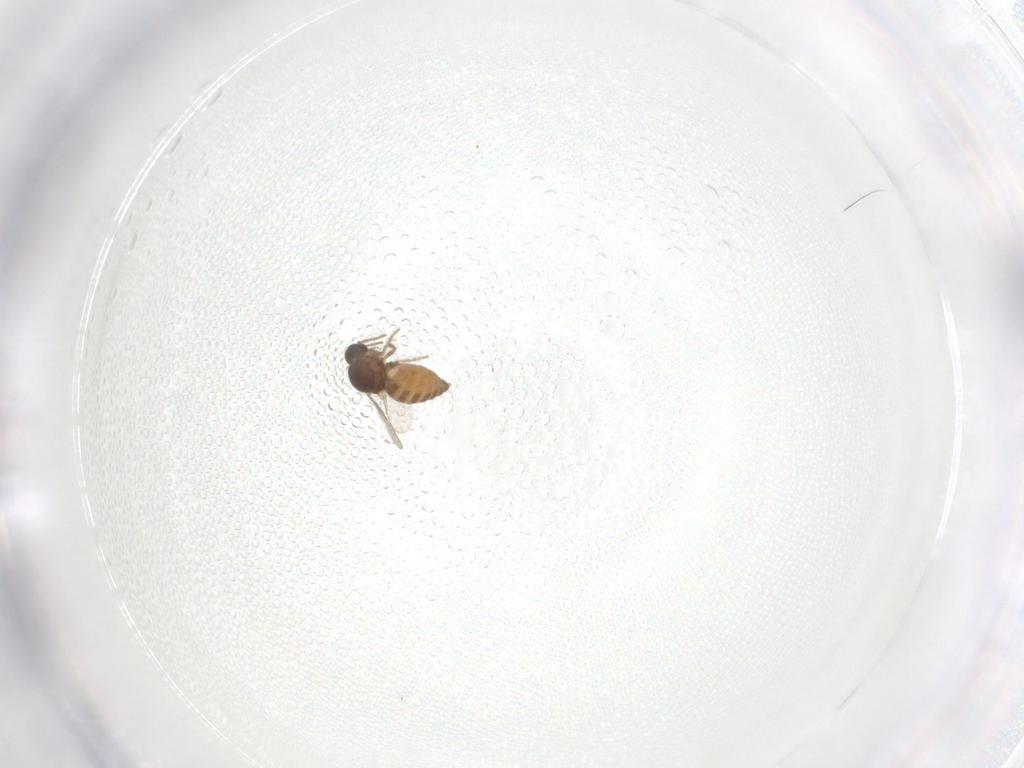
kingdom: Animalia
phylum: Arthropoda
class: Insecta
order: Diptera
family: Ceratopogonidae
